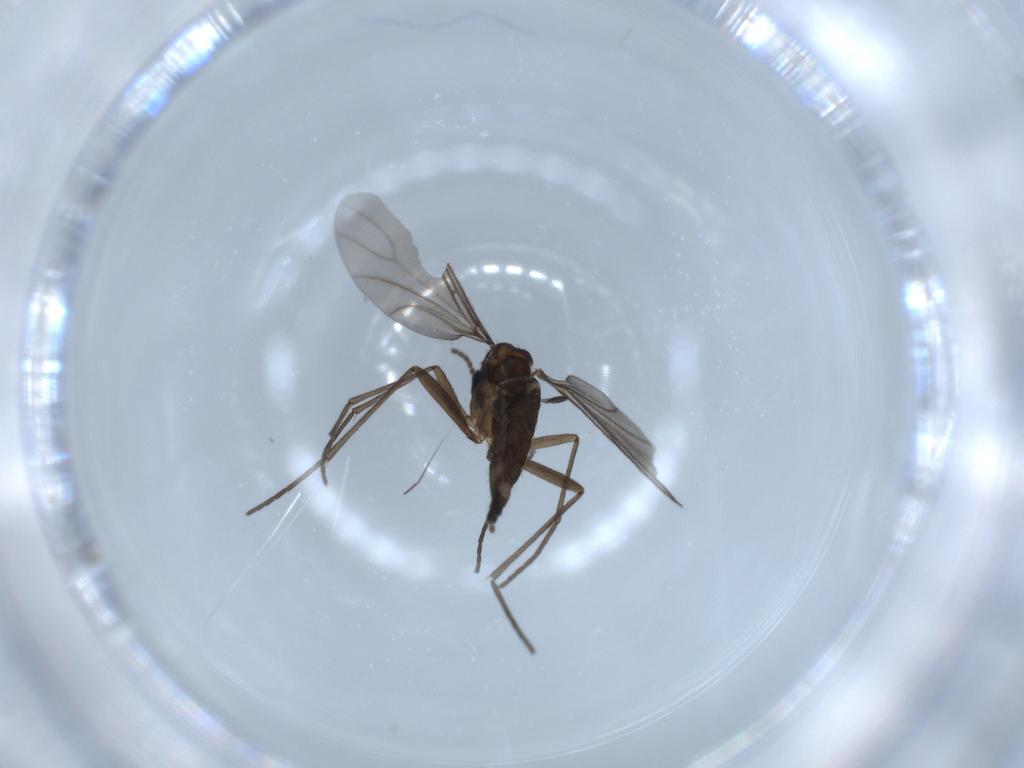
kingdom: Animalia
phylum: Arthropoda
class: Insecta
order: Diptera
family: Sciaridae
